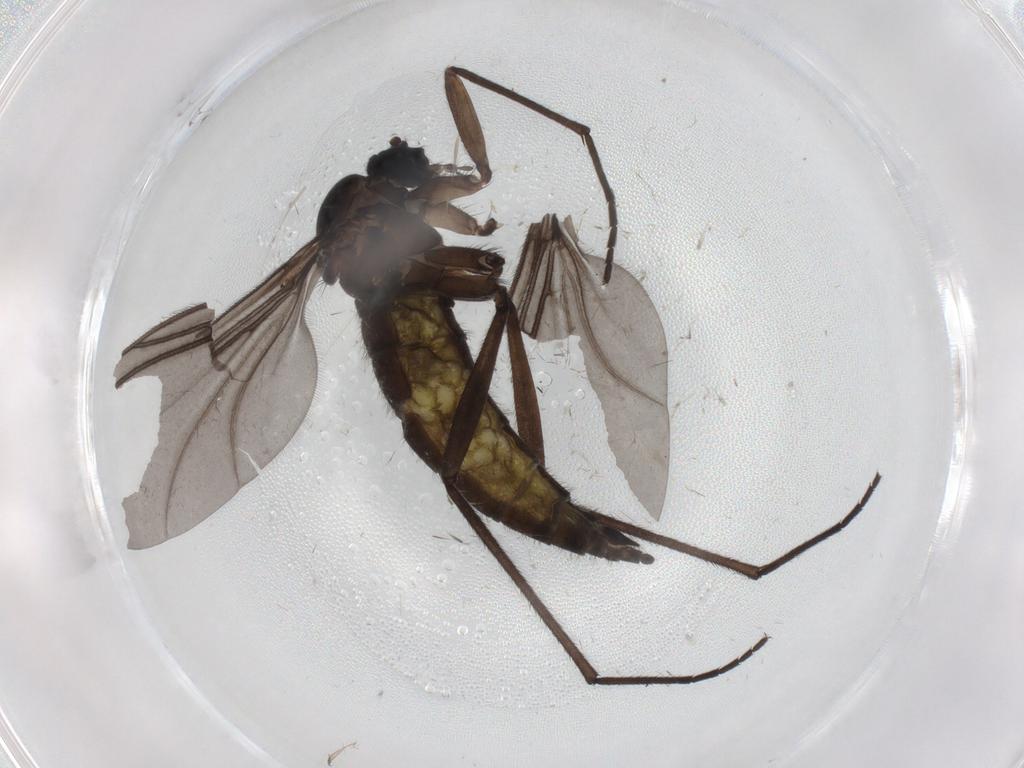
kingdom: Animalia
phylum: Arthropoda
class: Insecta
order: Diptera
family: Sciaridae
